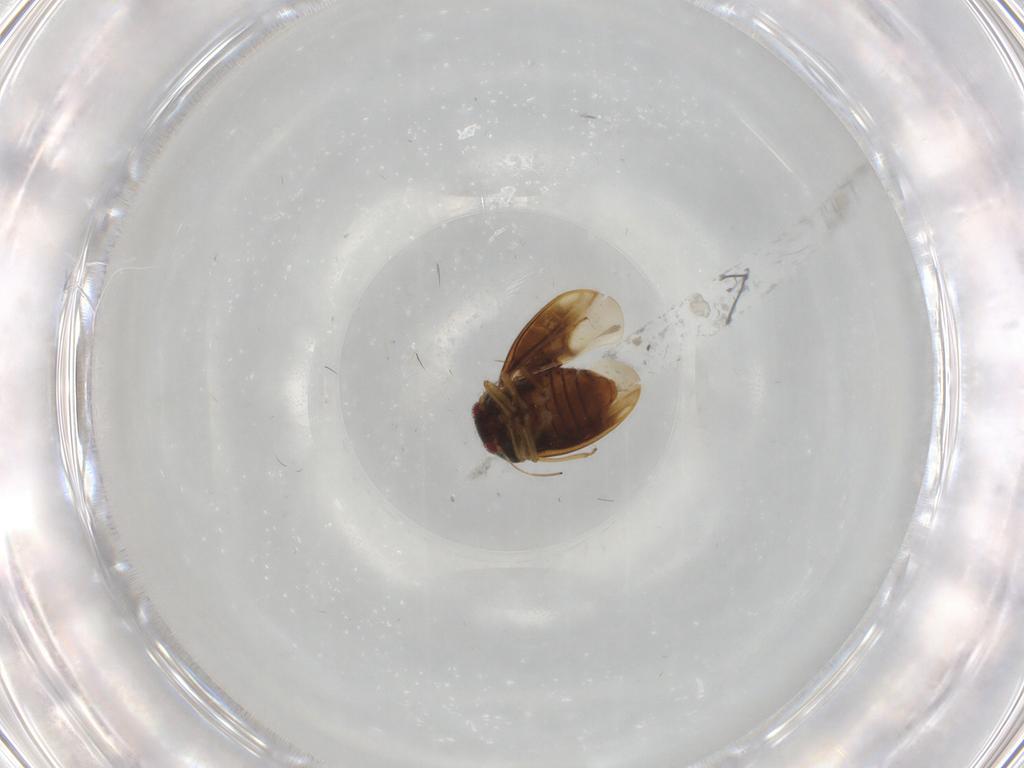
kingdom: Animalia
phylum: Arthropoda
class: Insecta
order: Hemiptera
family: Schizopteridae
